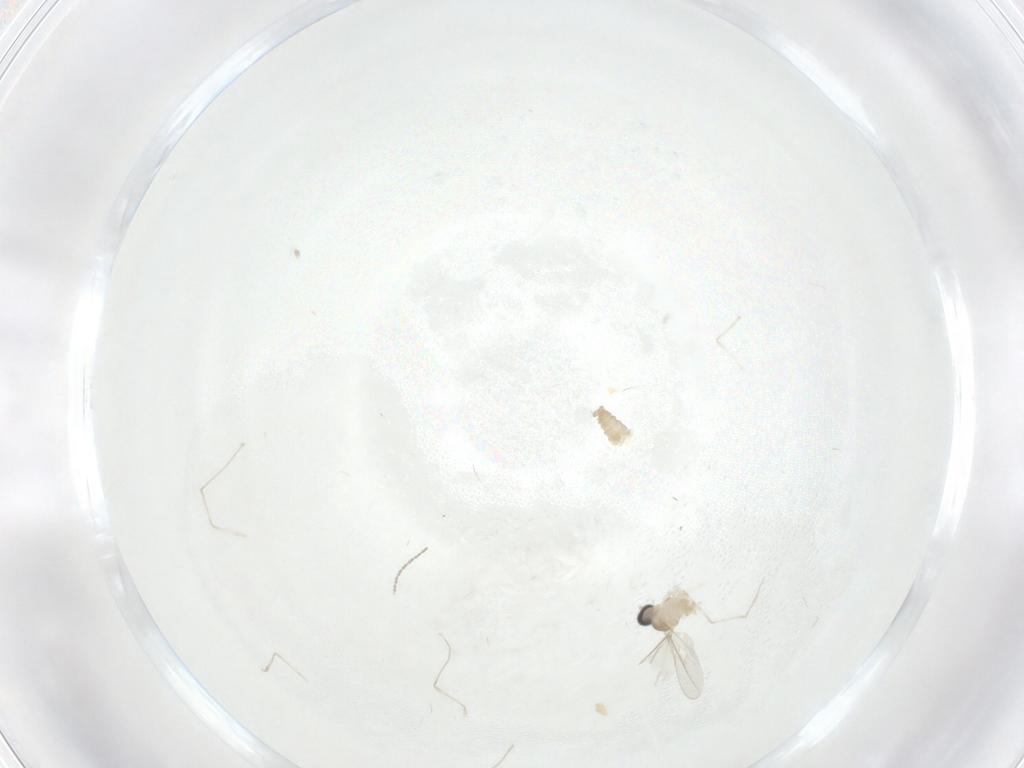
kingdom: Animalia
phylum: Arthropoda
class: Insecta
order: Diptera
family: Cecidomyiidae
